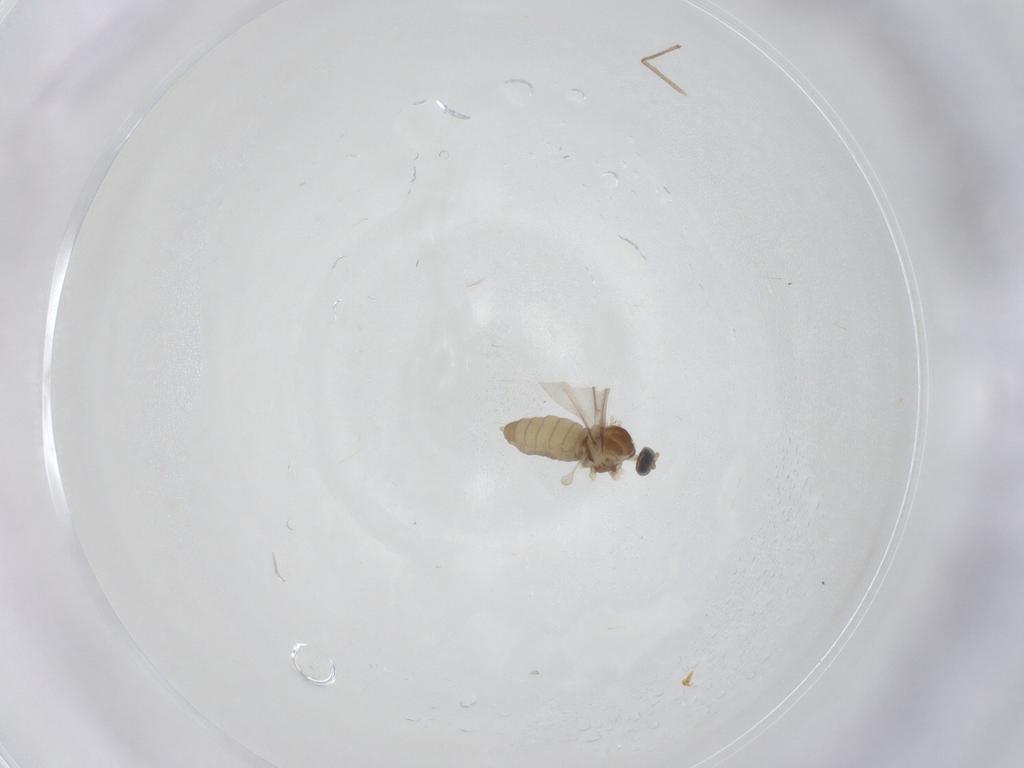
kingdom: Animalia
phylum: Arthropoda
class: Insecta
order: Diptera
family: Cecidomyiidae
